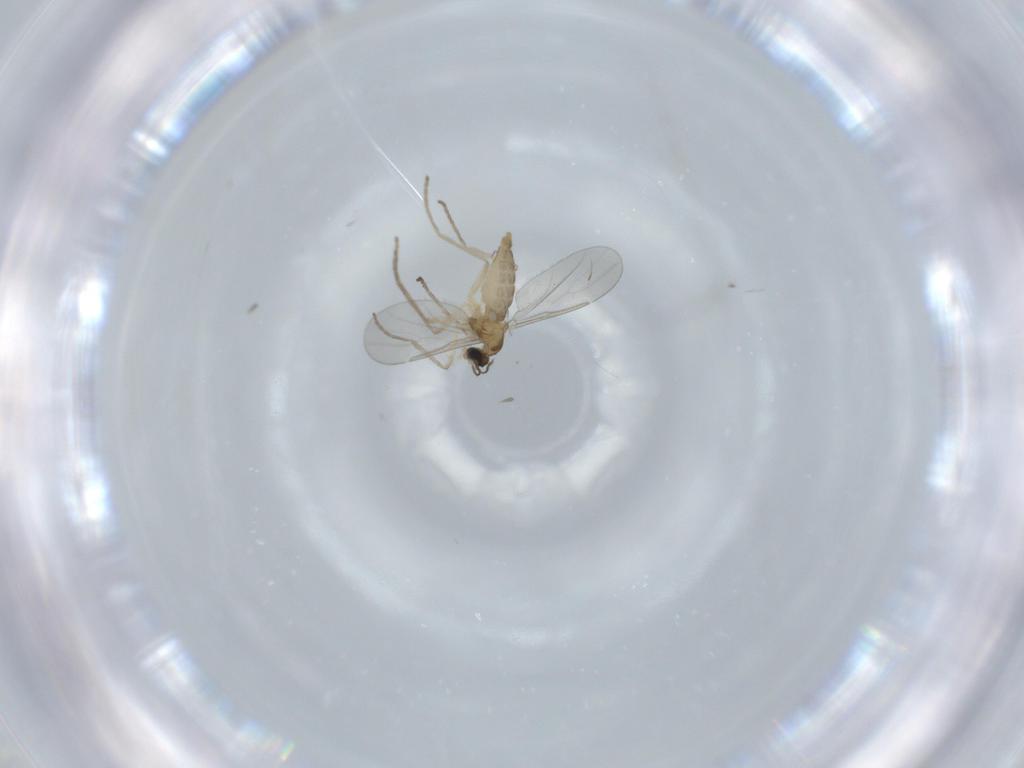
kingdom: Animalia
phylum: Arthropoda
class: Insecta
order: Diptera
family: Cecidomyiidae
